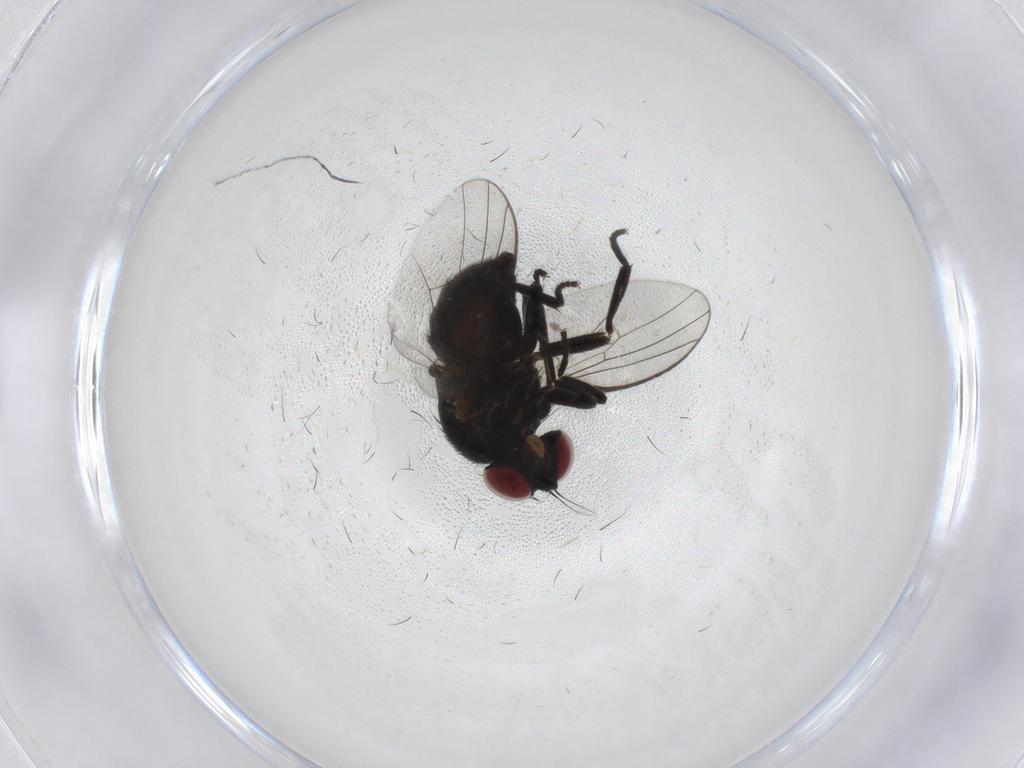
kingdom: Animalia
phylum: Arthropoda
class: Insecta
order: Diptera
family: Agromyzidae
